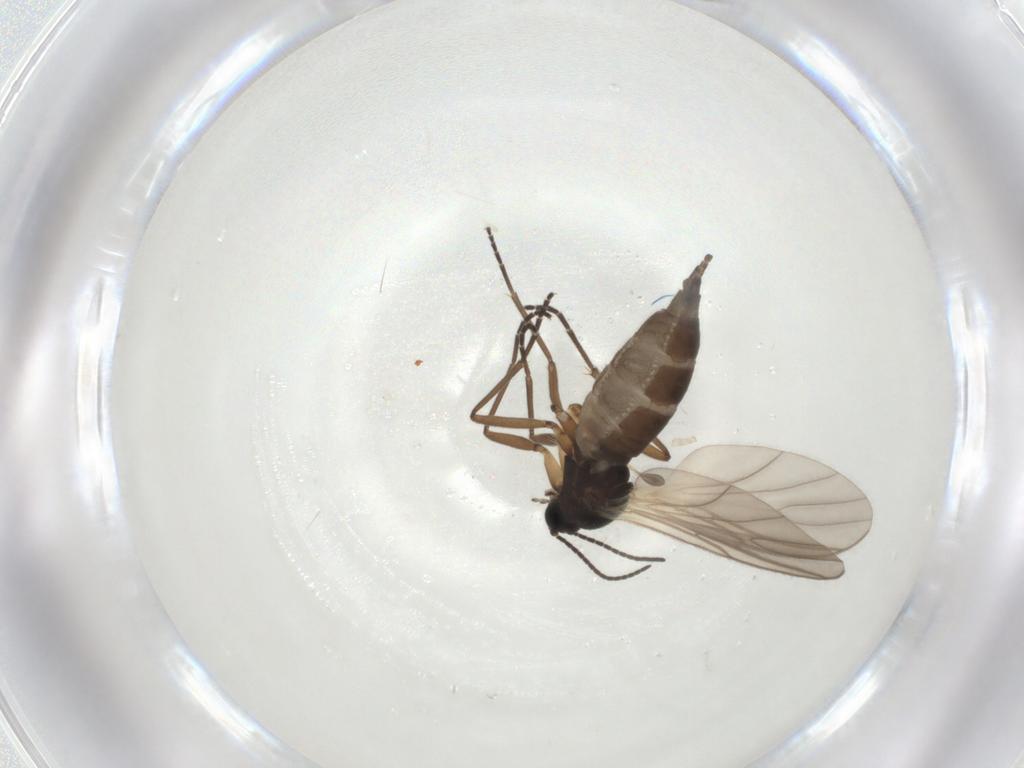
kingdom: Animalia
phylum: Arthropoda
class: Insecta
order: Diptera
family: Sciaridae
